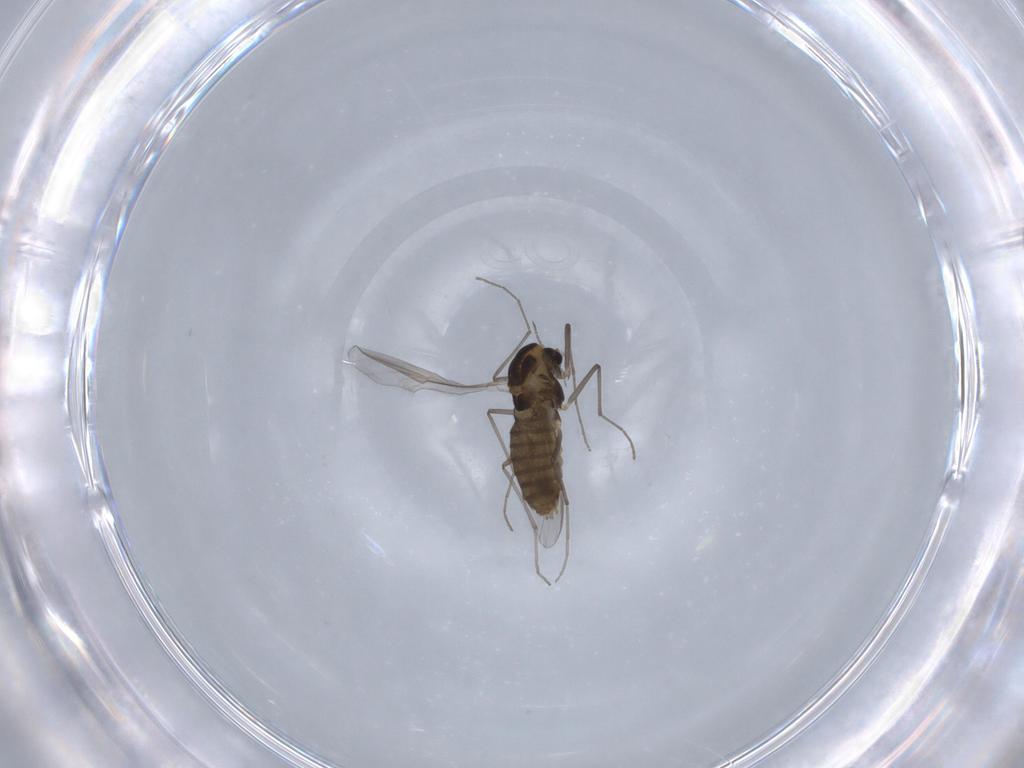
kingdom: Animalia
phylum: Arthropoda
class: Insecta
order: Diptera
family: Chironomidae
